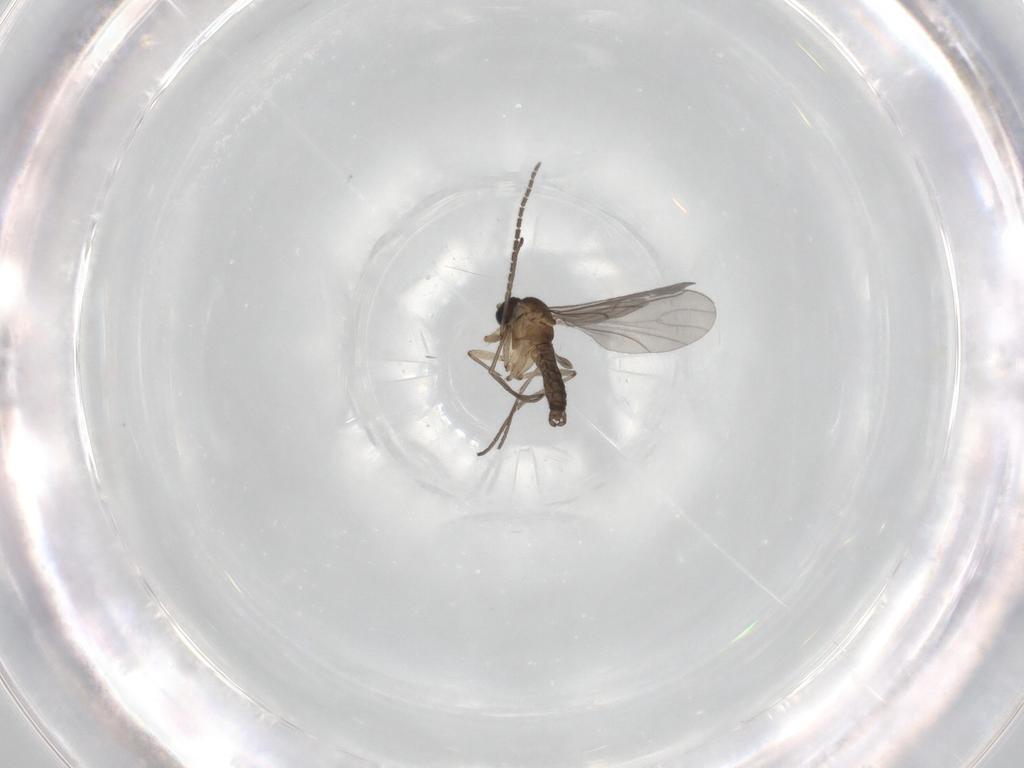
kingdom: Animalia
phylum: Arthropoda
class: Insecta
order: Diptera
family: Sciaridae
